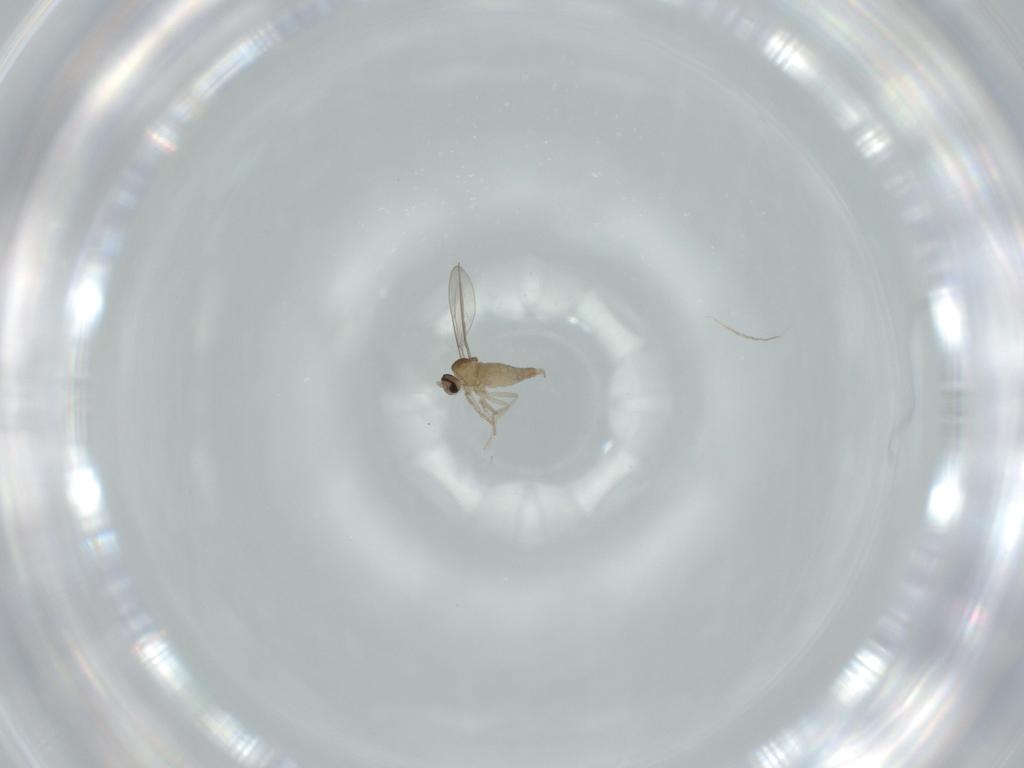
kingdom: Animalia
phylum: Arthropoda
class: Insecta
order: Diptera
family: Cecidomyiidae
